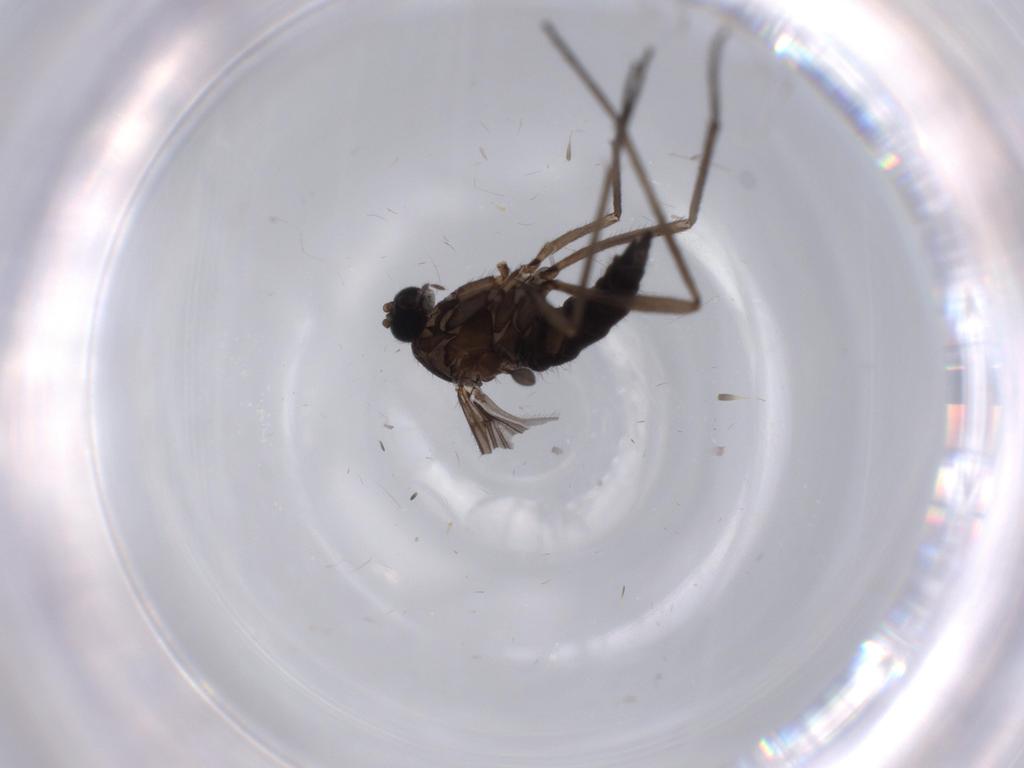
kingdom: Animalia
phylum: Arthropoda
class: Insecta
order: Diptera
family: Sciaridae
